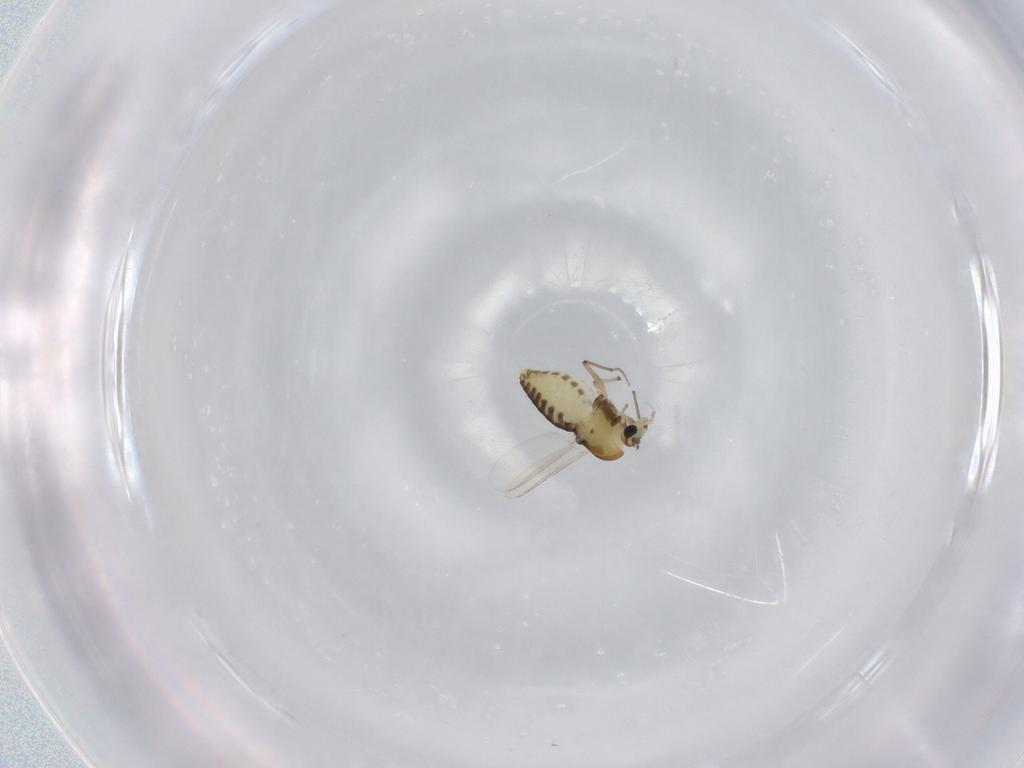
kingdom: Animalia
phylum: Arthropoda
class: Insecta
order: Diptera
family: Chironomidae
